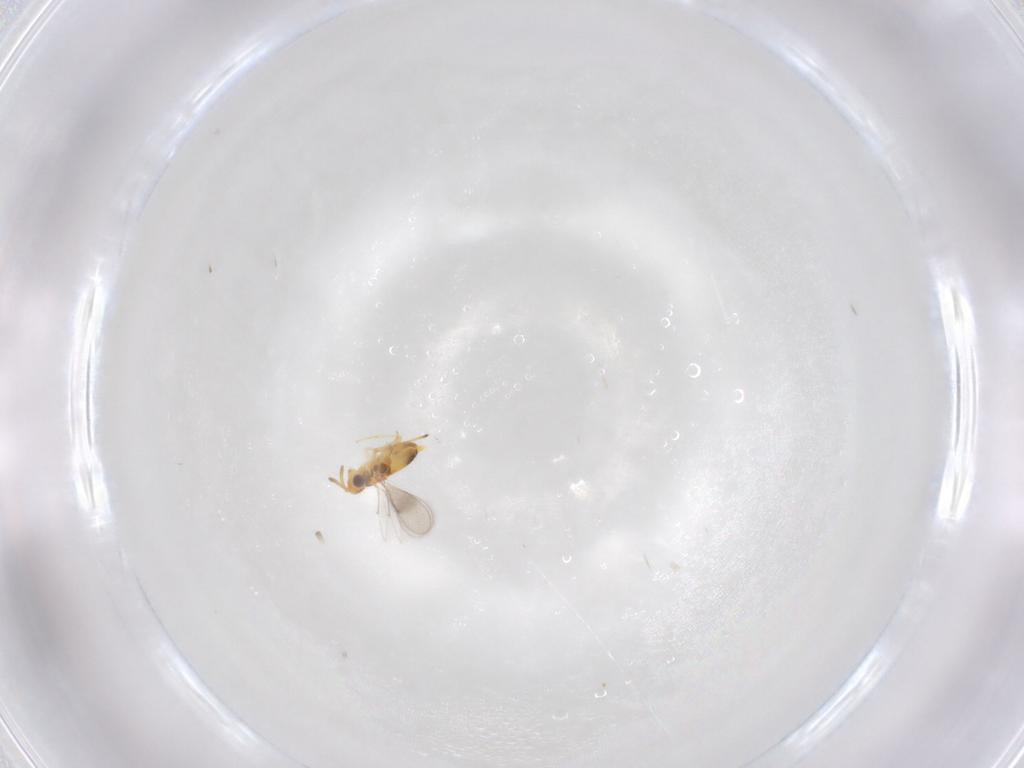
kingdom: Animalia
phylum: Arthropoda
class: Insecta
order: Hymenoptera
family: Aphelinidae
